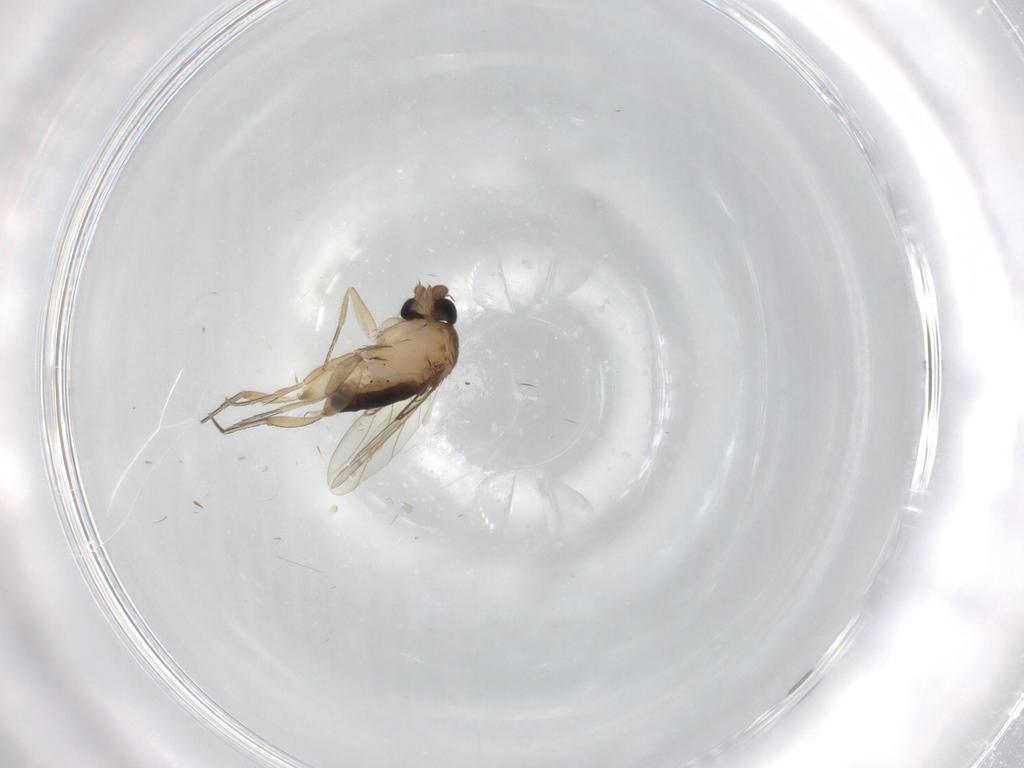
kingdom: Animalia
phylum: Arthropoda
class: Insecta
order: Diptera
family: Phoridae
